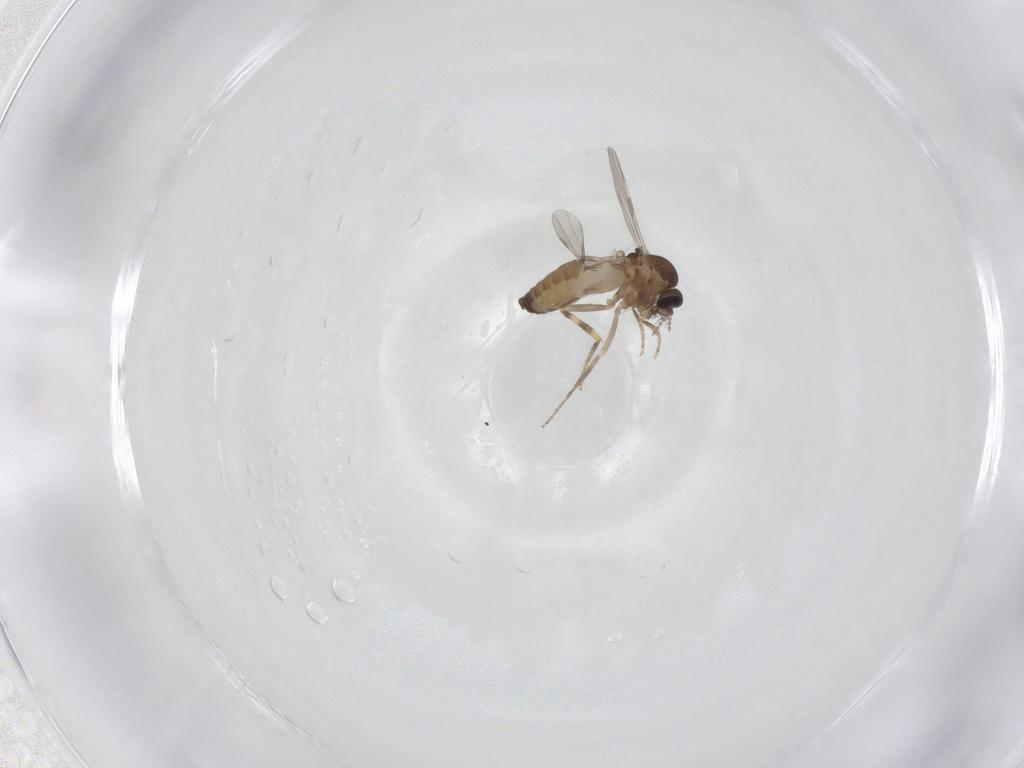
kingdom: Animalia
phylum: Arthropoda
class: Insecta
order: Diptera
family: Ceratopogonidae
